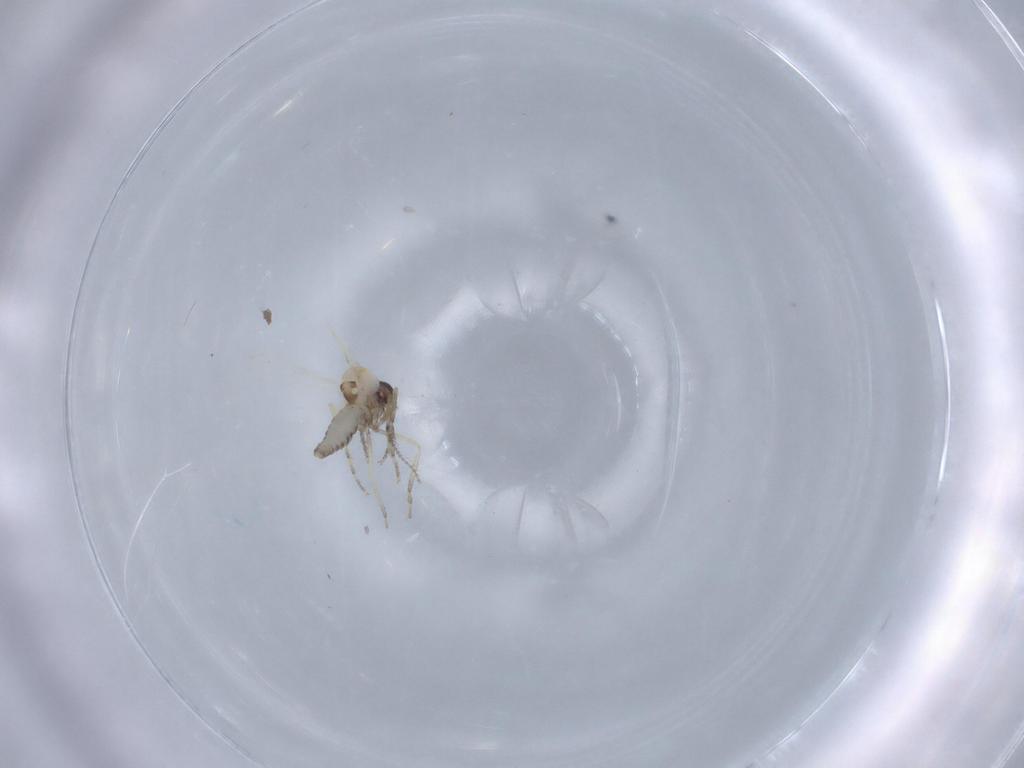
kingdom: Animalia
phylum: Arthropoda
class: Insecta
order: Diptera
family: Ceratopogonidae
